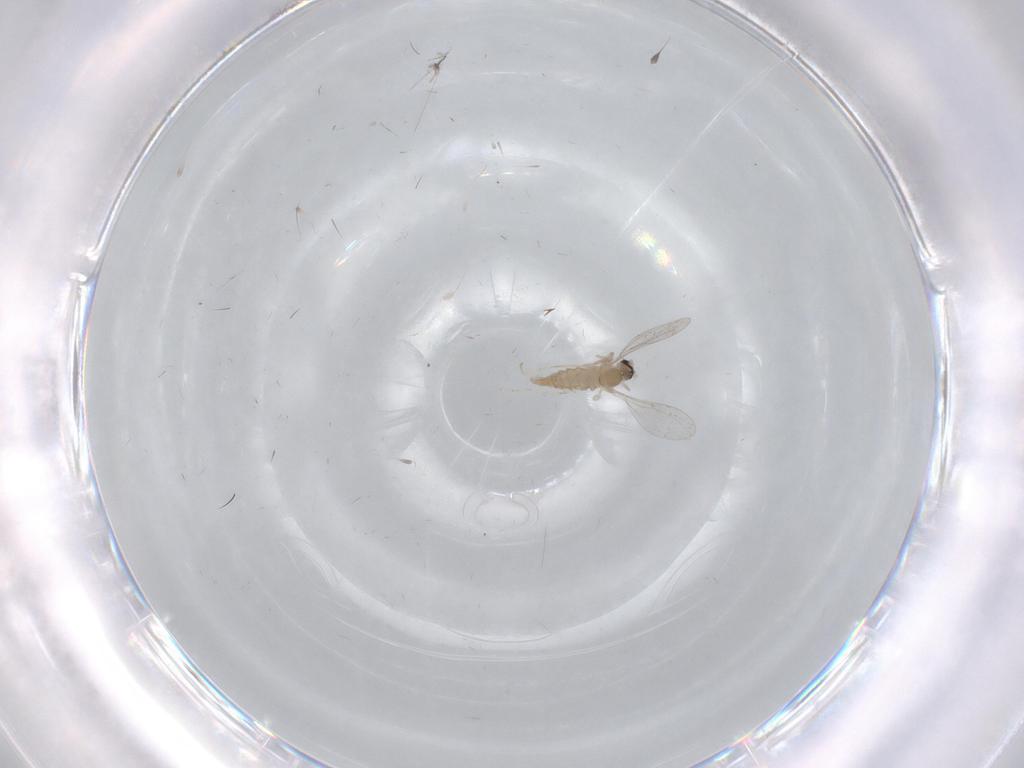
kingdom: Animalia
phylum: Arthropoda
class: Insecta
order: Diptera
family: Cecidomyiidae
